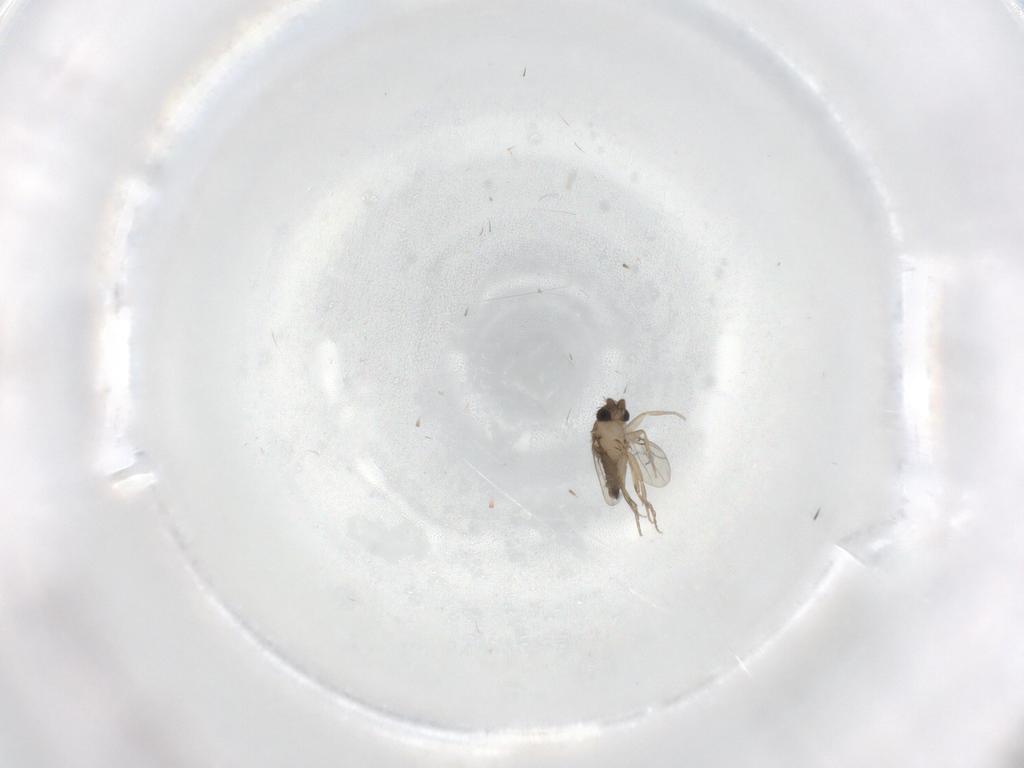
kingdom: Animalia
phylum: Arthropoda
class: Insecta
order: Diptera
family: Phoridae
